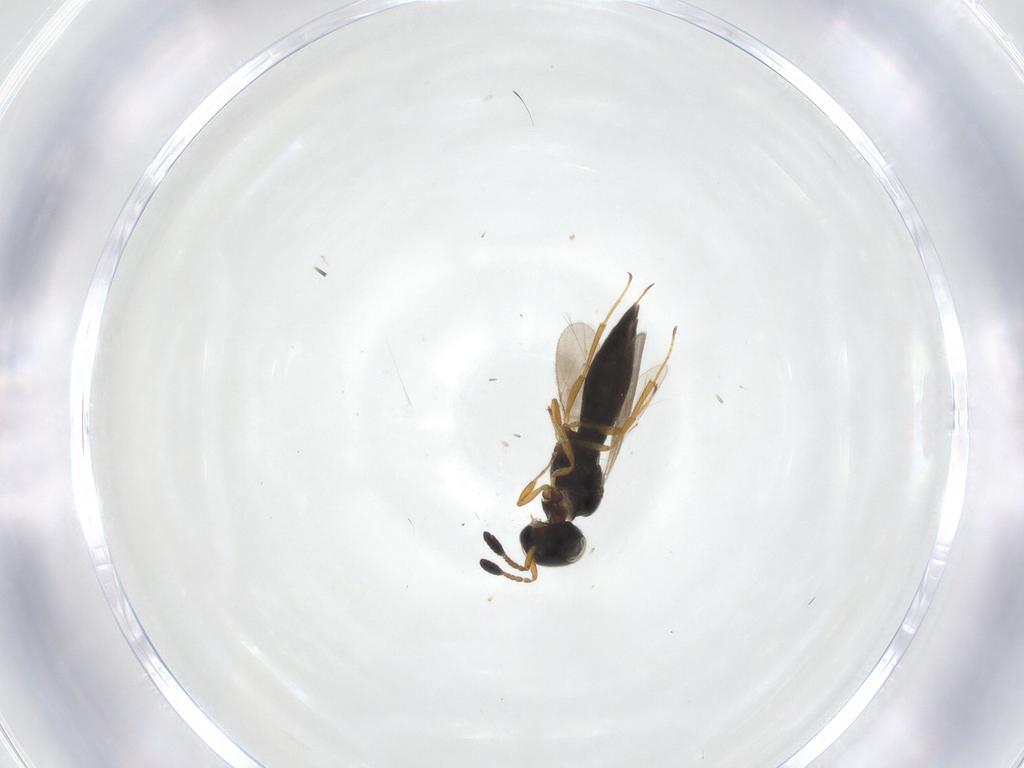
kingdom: Animalia
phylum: Arthropoda
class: Insecta
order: Hymenoptera
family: Scelionidae
